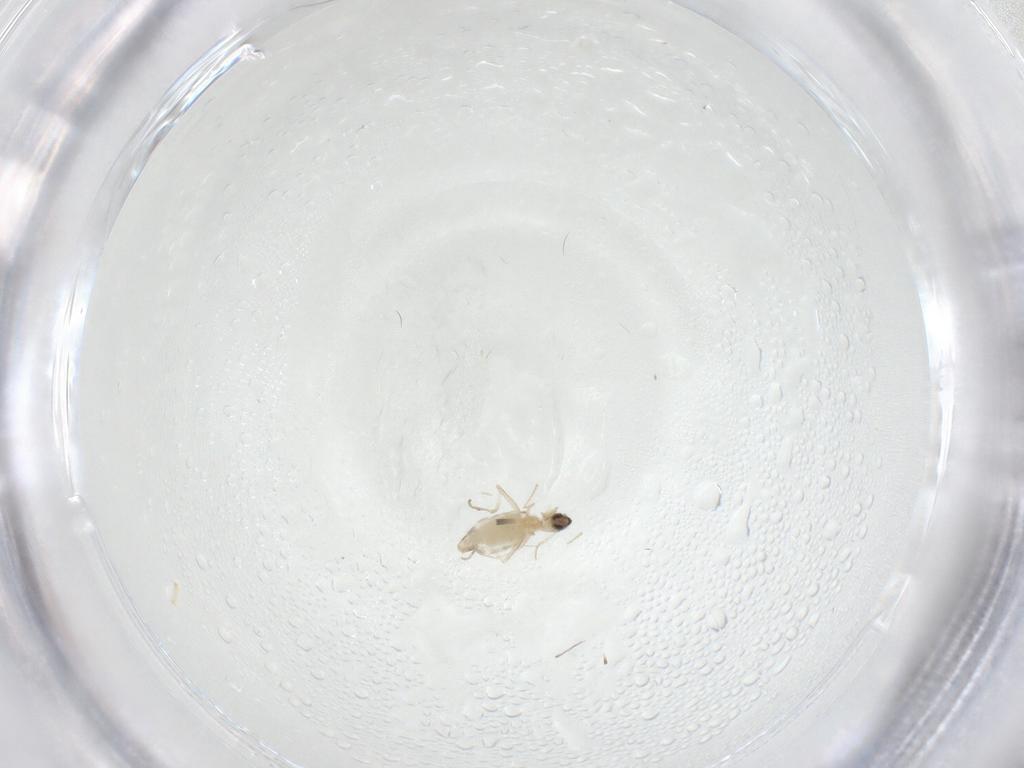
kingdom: Animalia
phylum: Arthropoda
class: Insecta
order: Diptera
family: Cecidomyiidae
